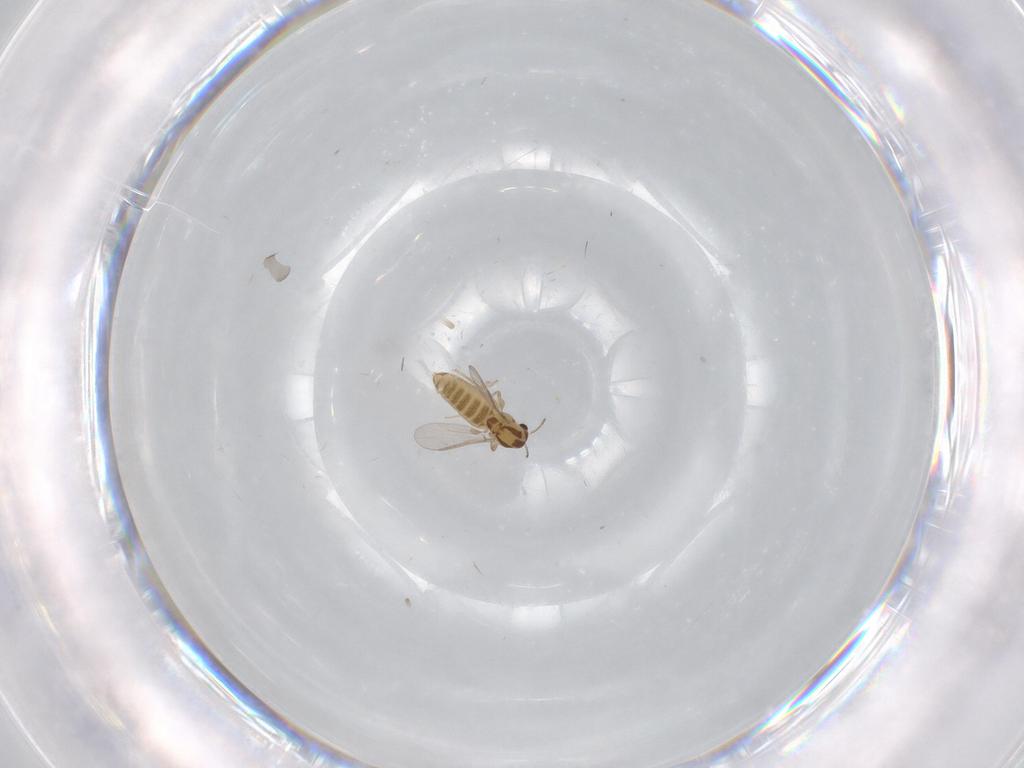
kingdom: Animalia
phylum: Arthropoda
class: Insecta
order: Diptera
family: Chironomidae
